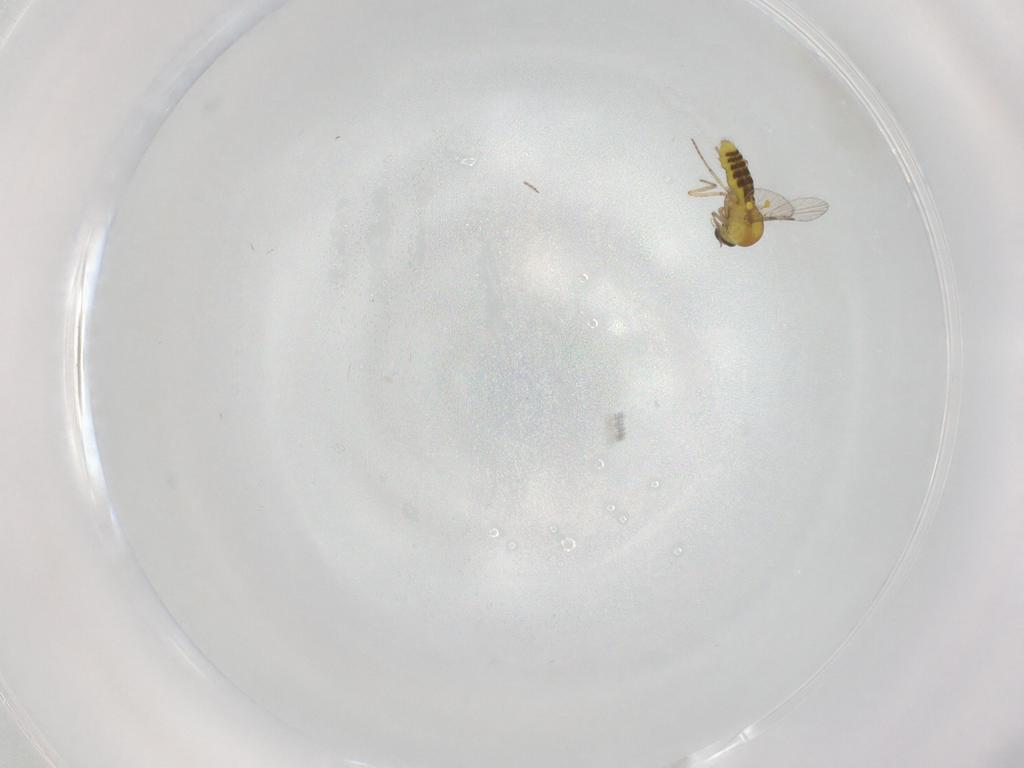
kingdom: Animalia
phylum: Arthropoda
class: Insecta
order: Diptera
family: Ceratopogonidae
